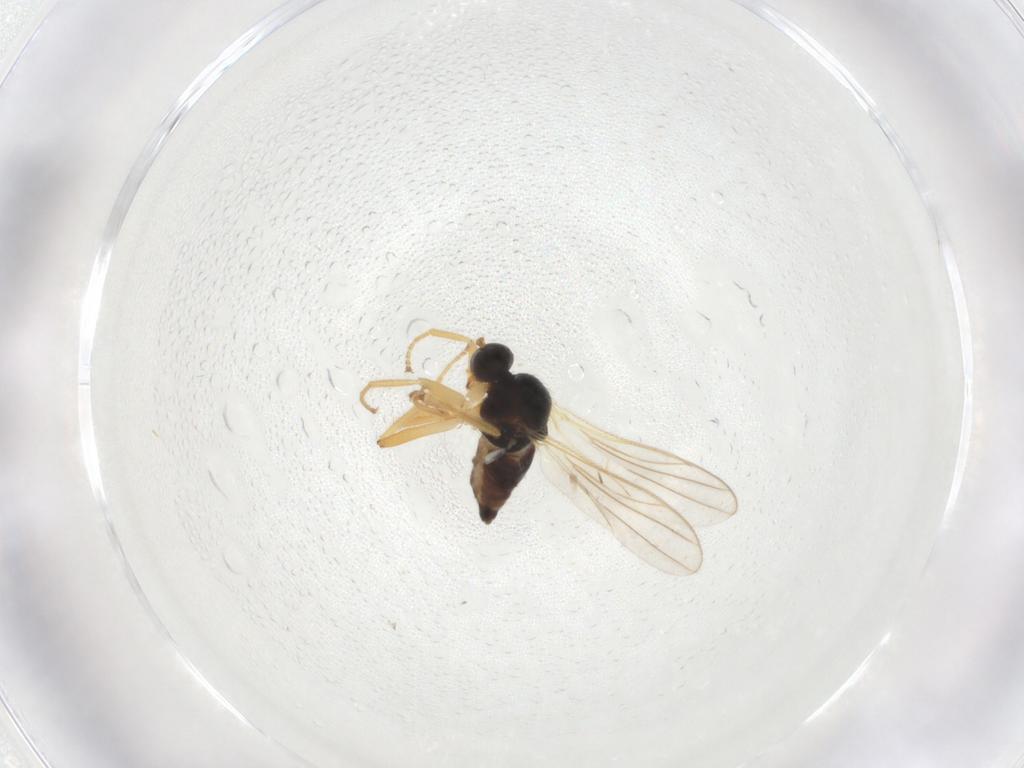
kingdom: Animalia
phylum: Arthropoda
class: Insecta
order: Diptera
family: Hybotidae
